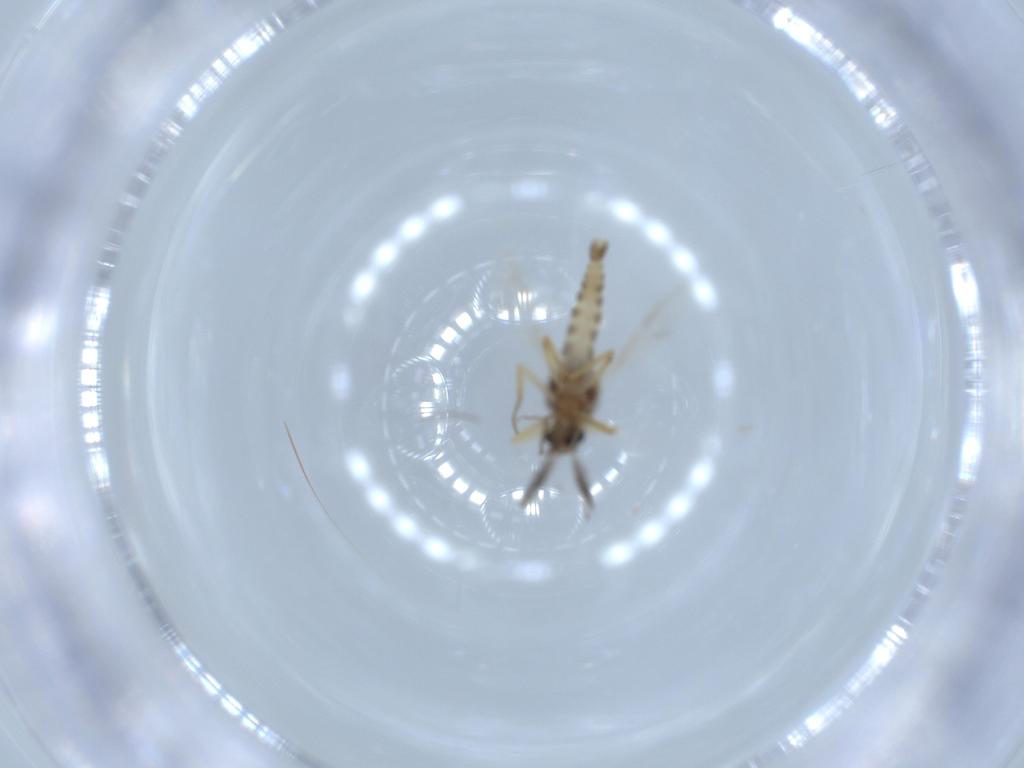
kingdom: Animalia
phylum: Arthropoda
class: Insecta
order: Diptera
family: Ceratopogonidae
